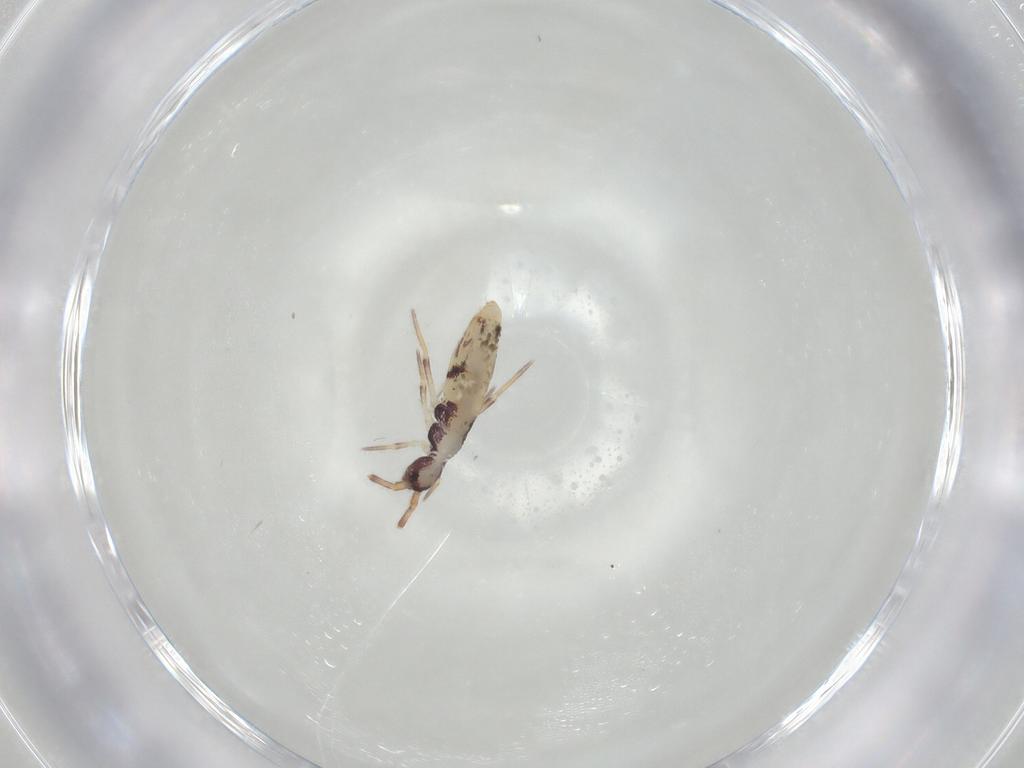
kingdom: Animalia
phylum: Arthropoda
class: Collembola
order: Entomobryomorpha
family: Entomobryidae
